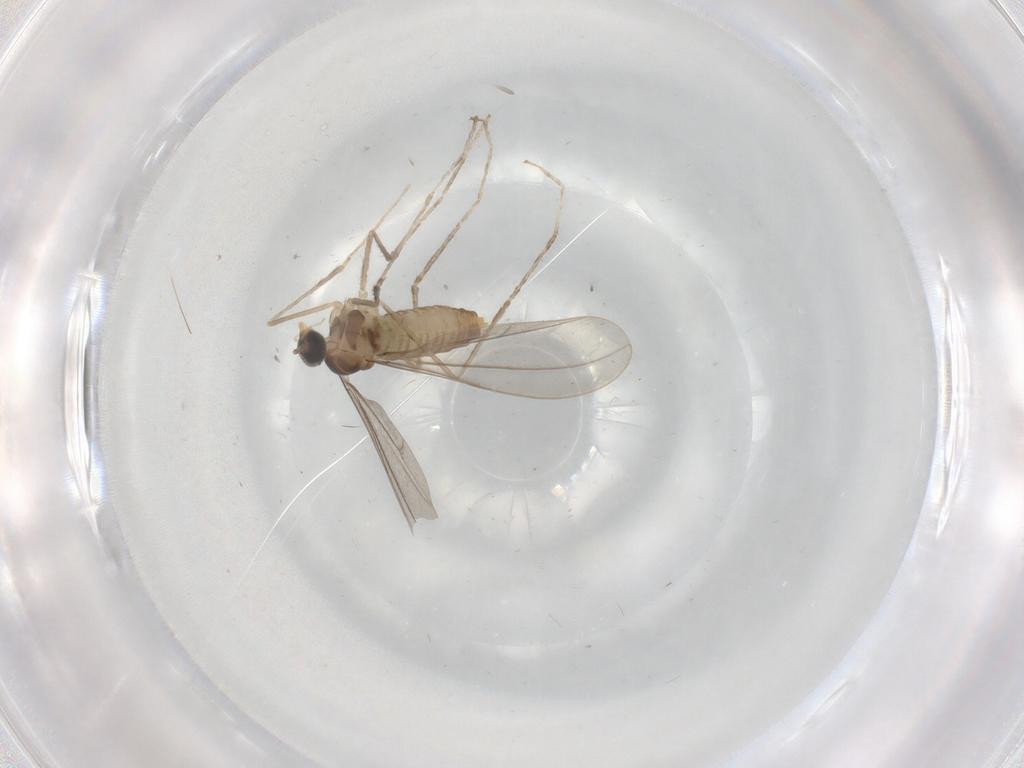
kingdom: Animalia
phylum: Arthropoda
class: Insecta
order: Diptera
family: Cecidomyiidae
